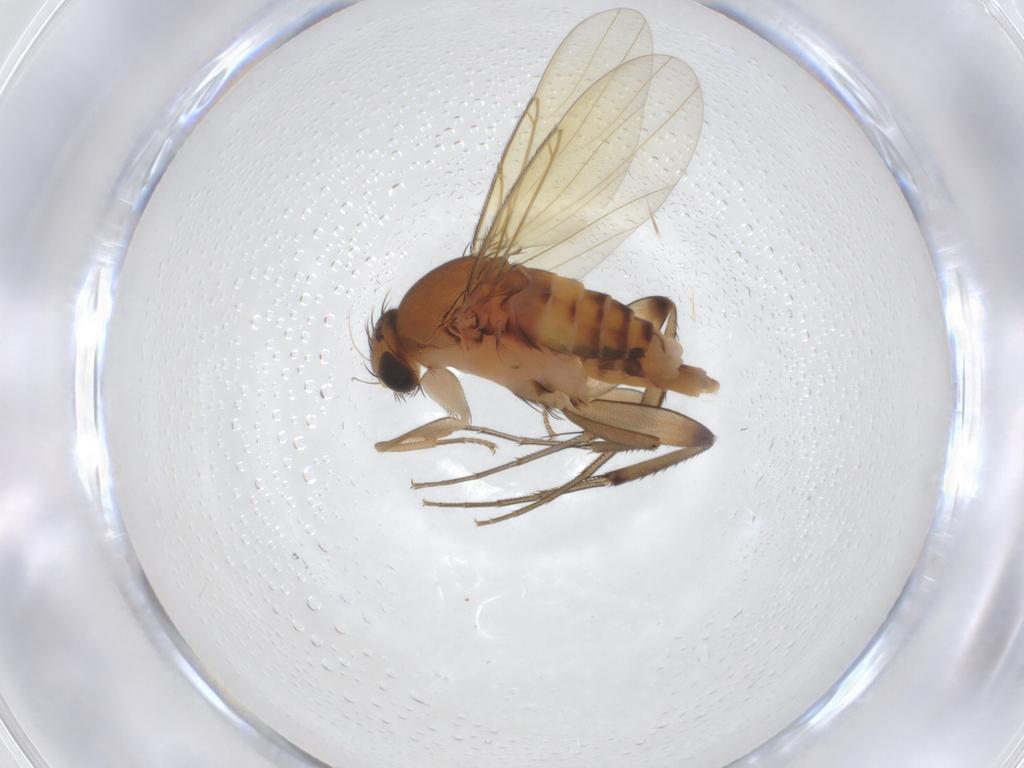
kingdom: Animalia
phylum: Arthropoda
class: Insecta
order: Diptera
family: Phoridae
